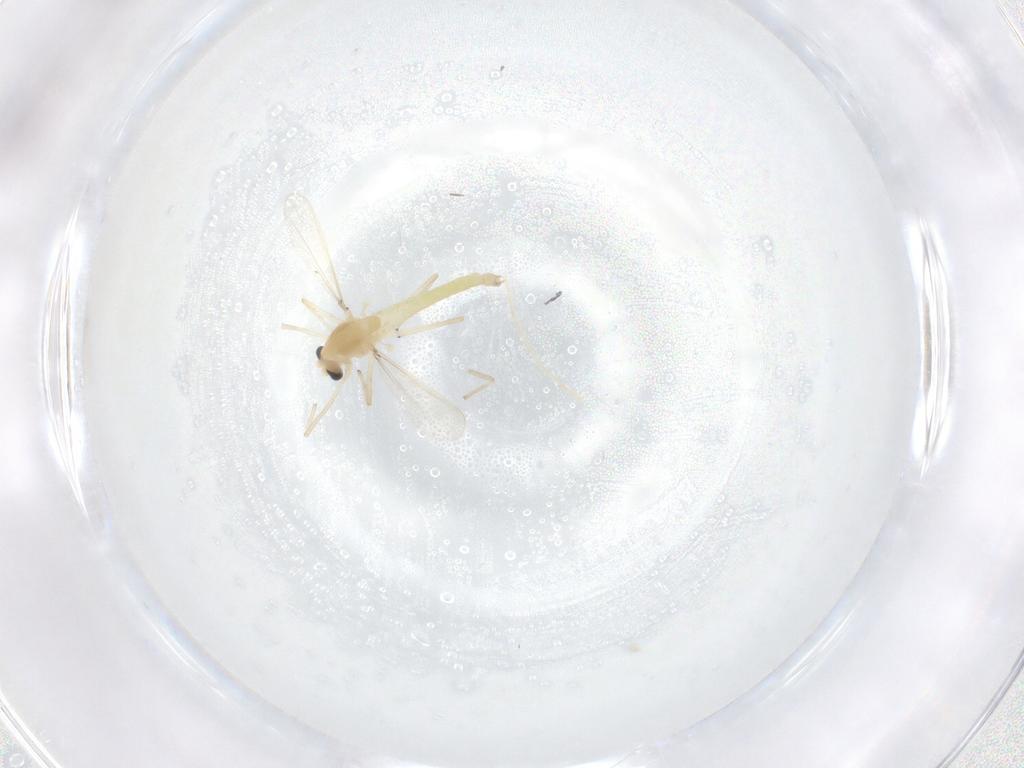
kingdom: Animalia
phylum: Arthropoda
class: Insecta
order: Diptera
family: Chironomidae
